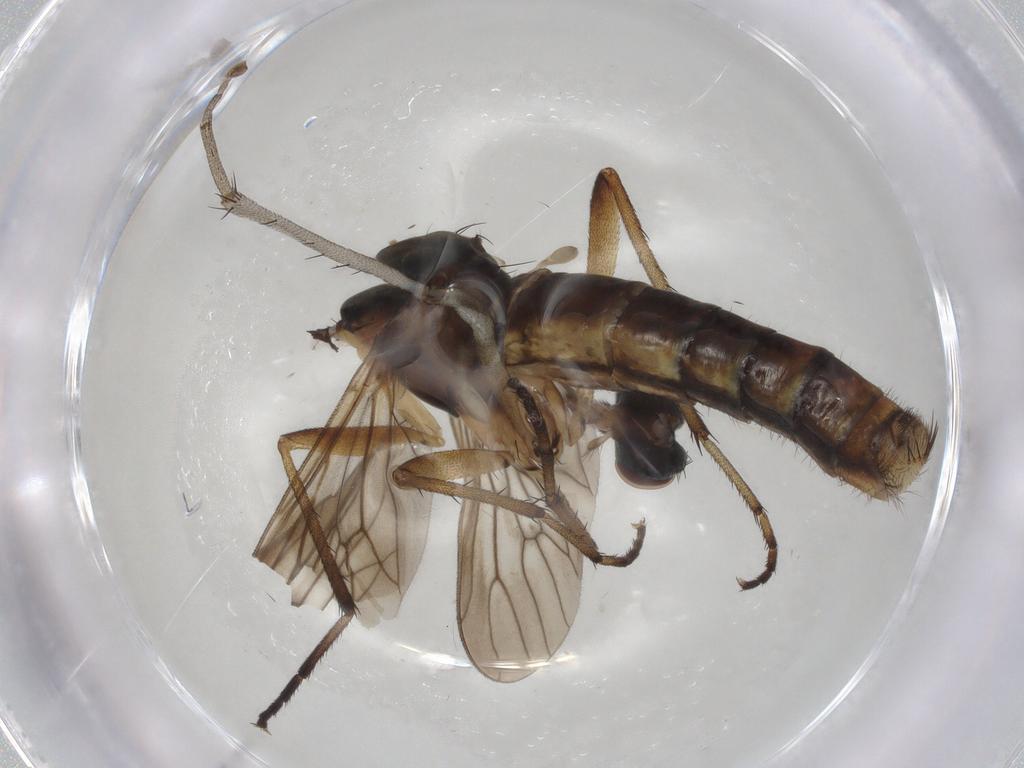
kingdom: Animalia
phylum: Arthropoda
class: Insecta
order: Diptera
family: Therevidae
